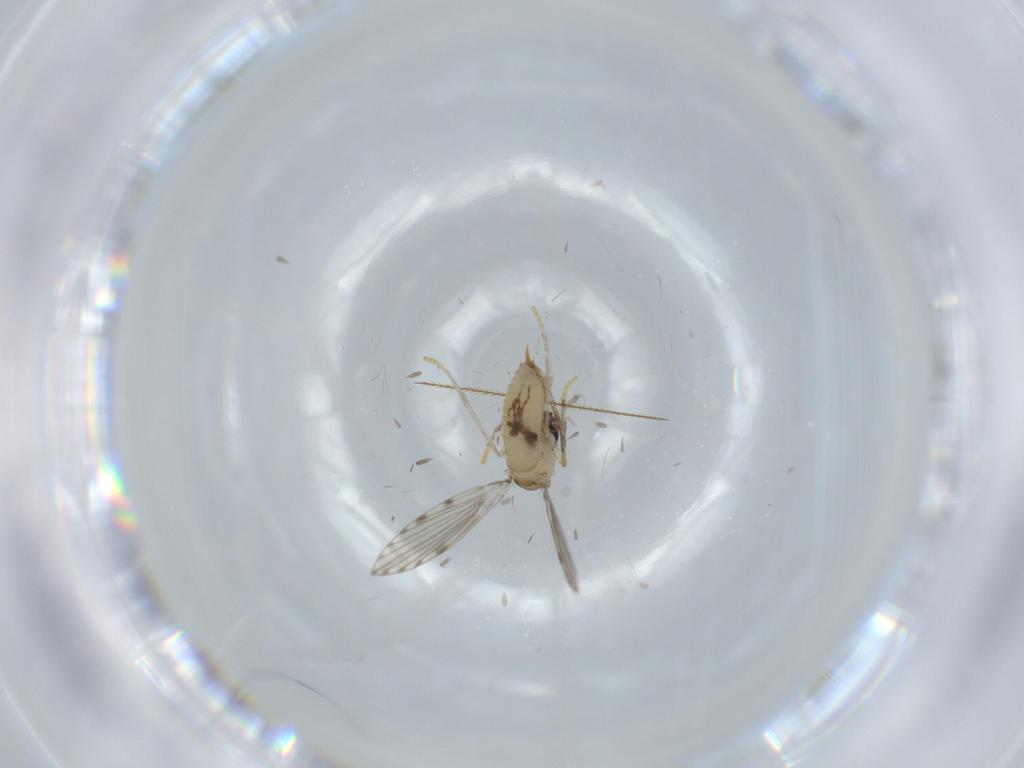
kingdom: Animalia
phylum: Arthropoda
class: Insecta
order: Diptera
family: Psychodidae
